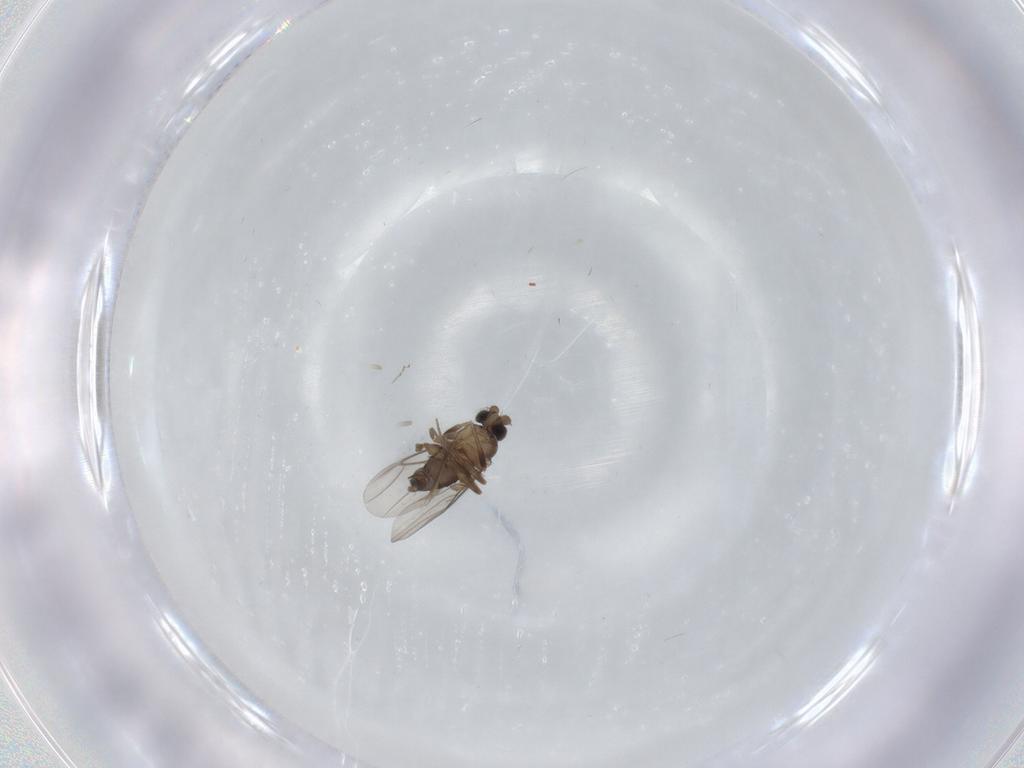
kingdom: Animalia
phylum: Arthropoda
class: Insecta
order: Diptera
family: Phoridae
